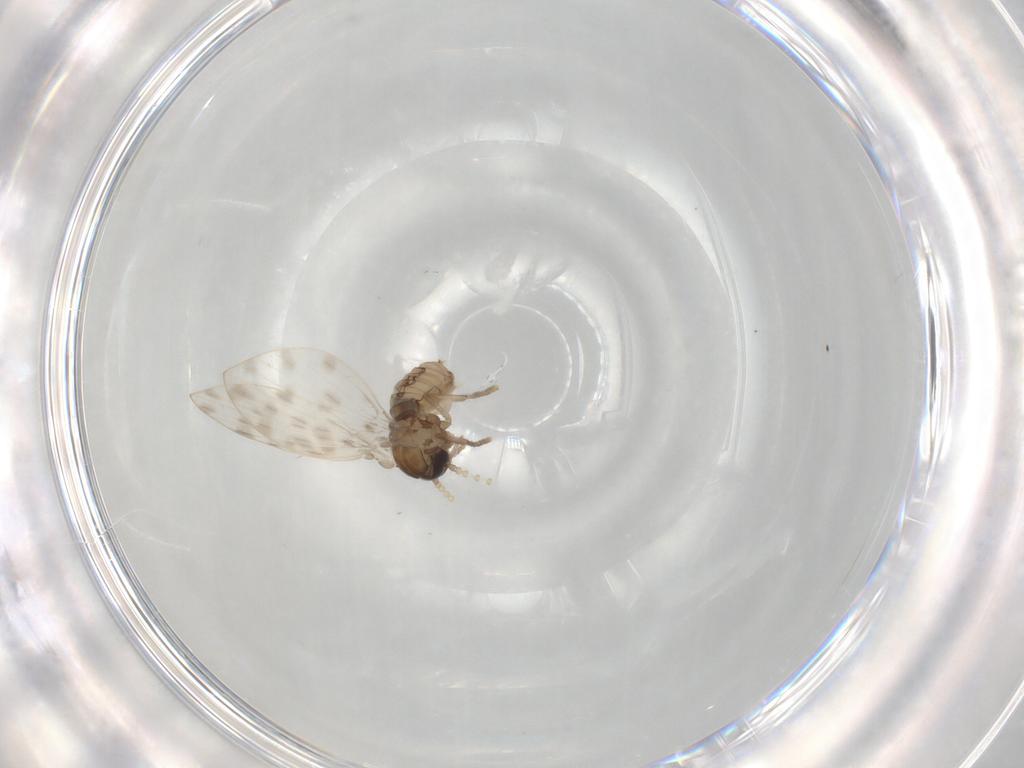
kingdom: Animalia
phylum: Arthropoda
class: Insecta
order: Diptera
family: Psychodidae
